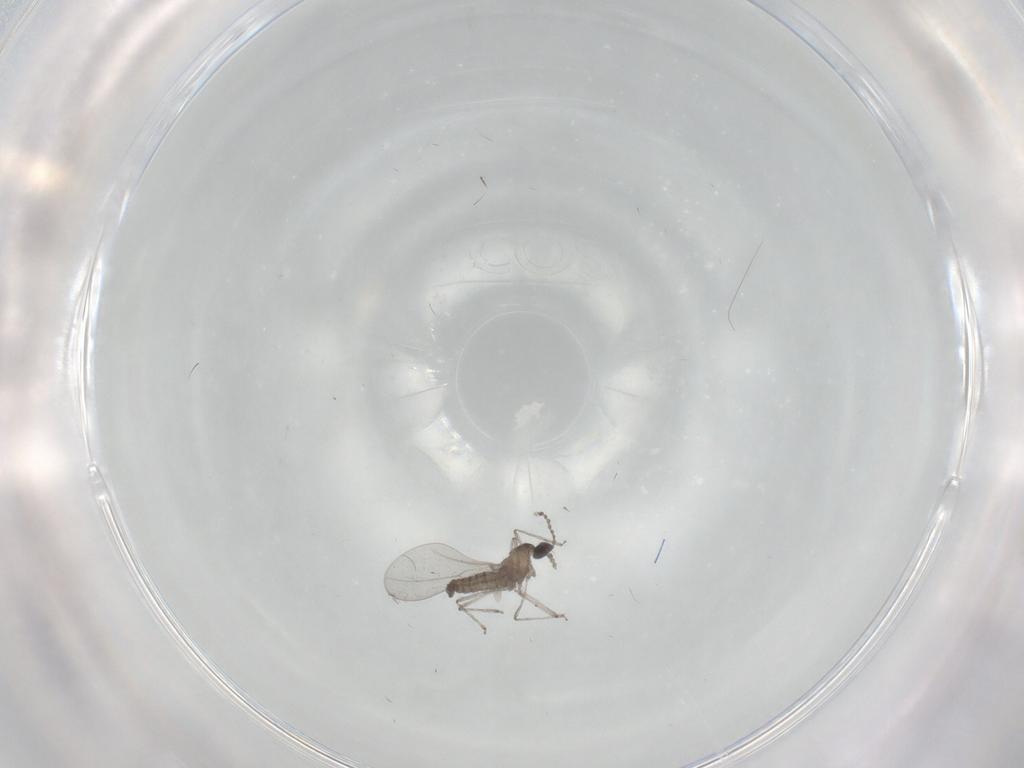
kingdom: Animalia
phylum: Arthropoda
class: Insecta
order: Diptera
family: Cecidomyiidae
